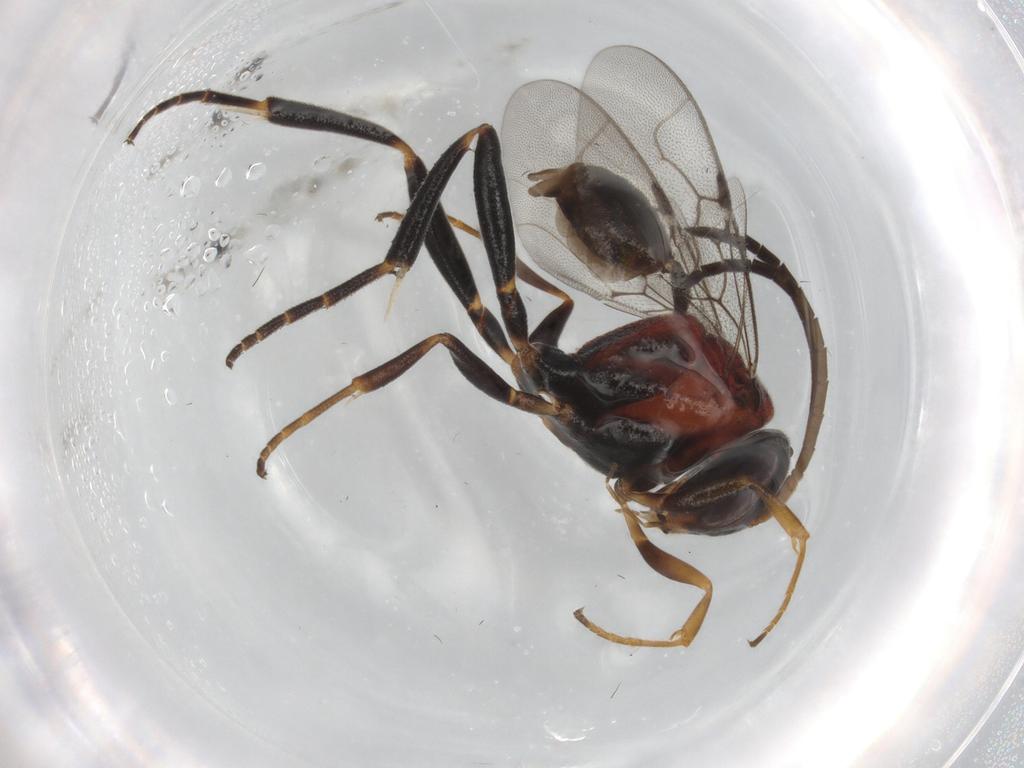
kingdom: Animalia
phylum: Arthropoda
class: Insecta
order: Hymenoptera
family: Evaniidae
